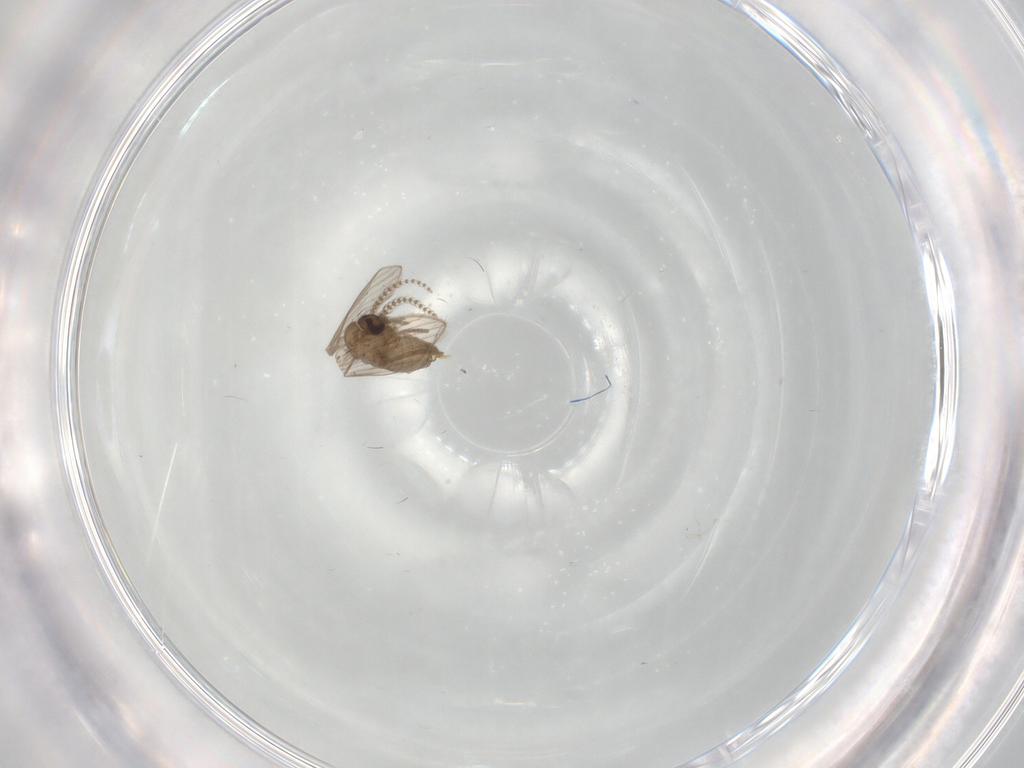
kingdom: Animalia
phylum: Arthropoda
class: Insecta
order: Diptera
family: Psychodidae
